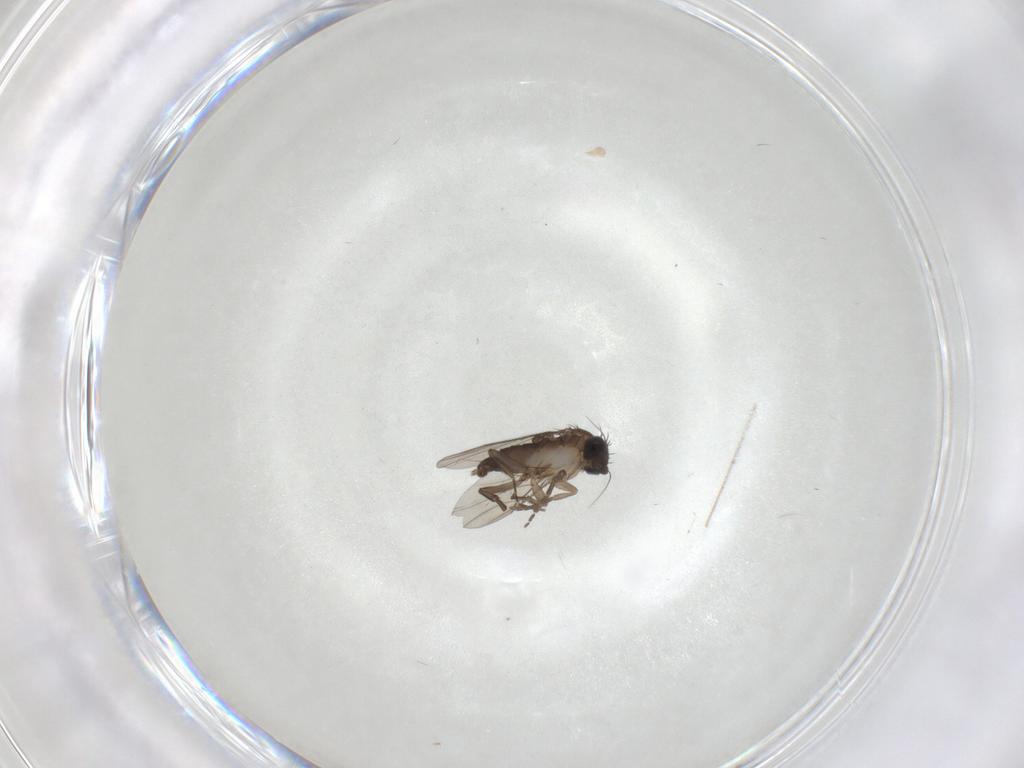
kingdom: Animalia
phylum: Arthropoda
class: Insecta
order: Diptera
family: Phoridae
